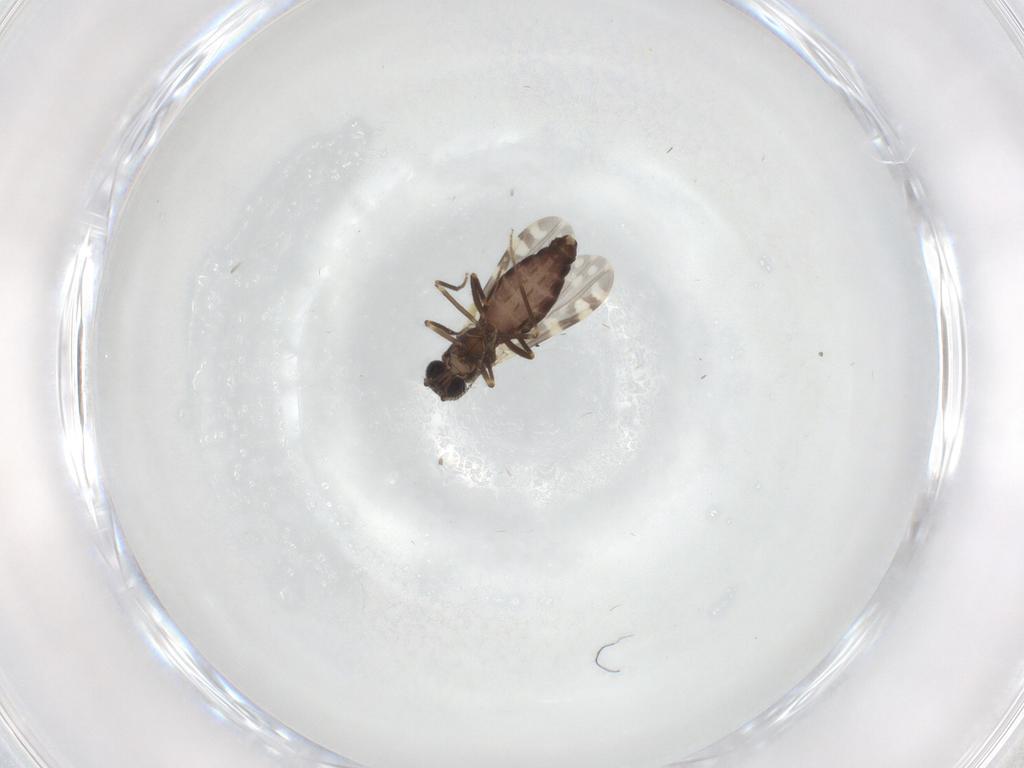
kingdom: Animalia
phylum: Arthropoda
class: Insecta
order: Diptera
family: Ceratopogonidae
